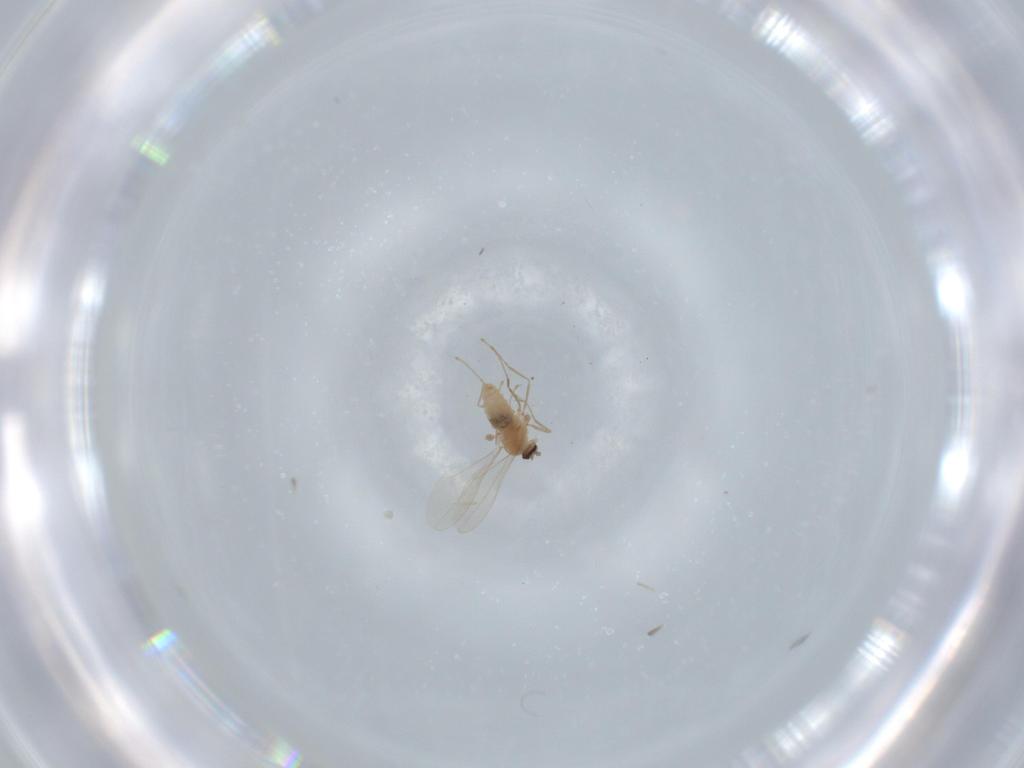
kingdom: Animalia
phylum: Arthropoda
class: Insecta
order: Diptera
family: Cecidomyiidae
